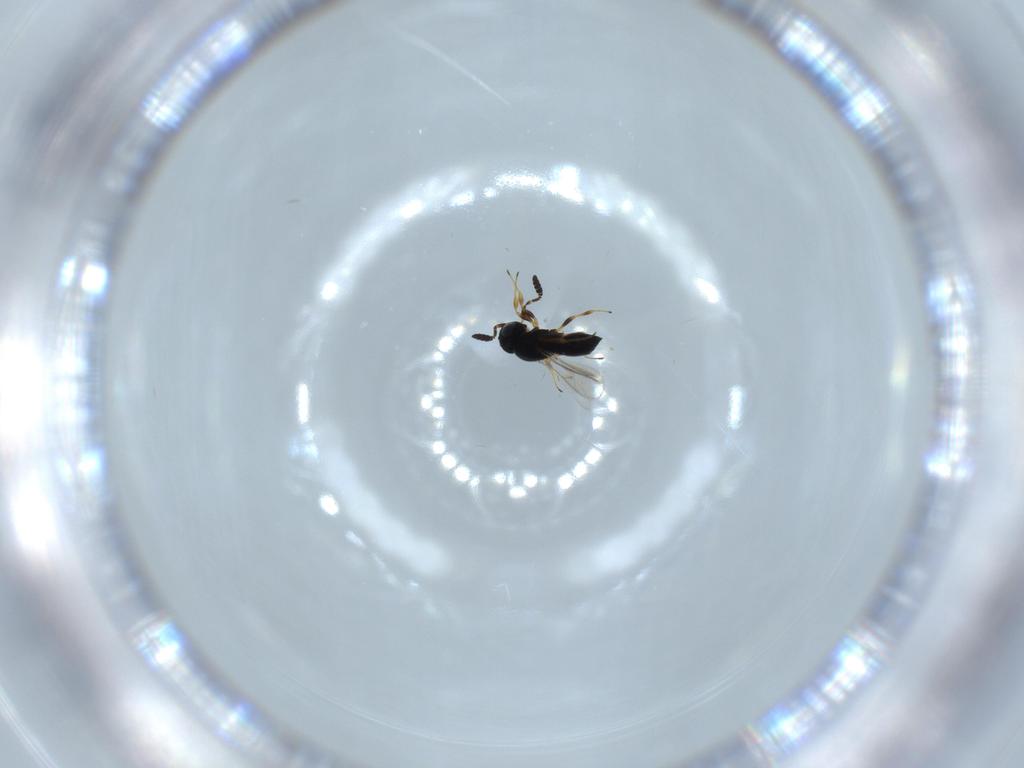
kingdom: Animalia
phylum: Arthropoda
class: Insecta
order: Hymenoptera
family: Scelionidae
